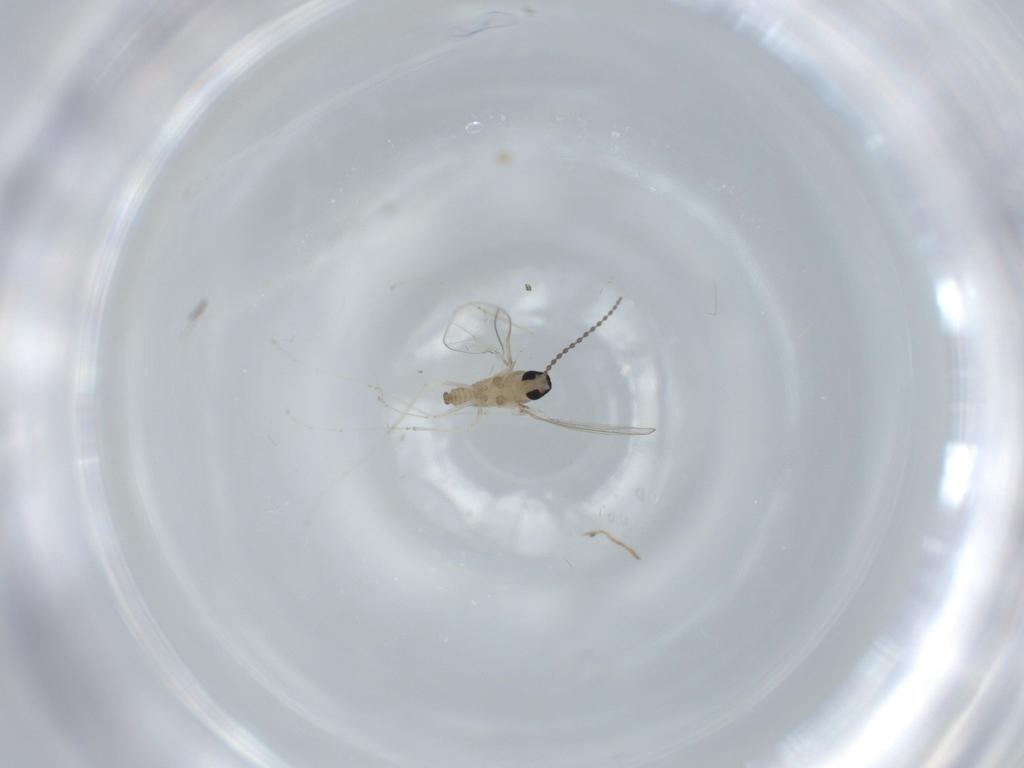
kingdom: Animalia
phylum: Arthropoda
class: Insecta
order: Diptera
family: Cecidomyiidae
